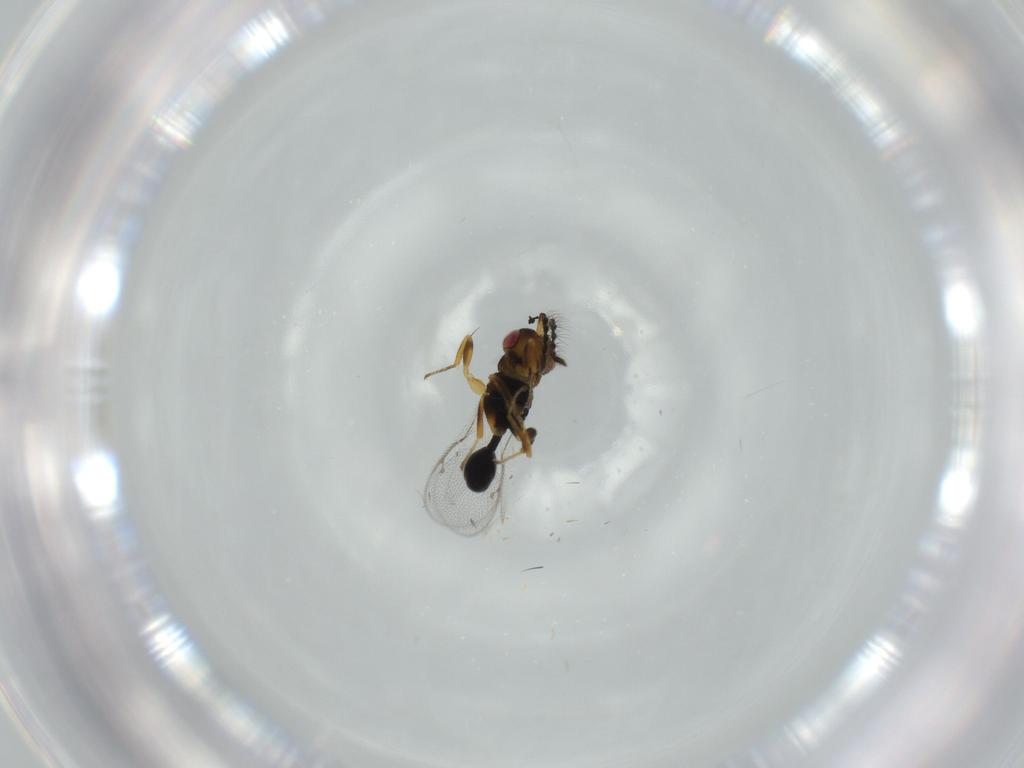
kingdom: Animalia
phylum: Arthropoda
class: Insecta
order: Hymenoptera
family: Eurytomidae
